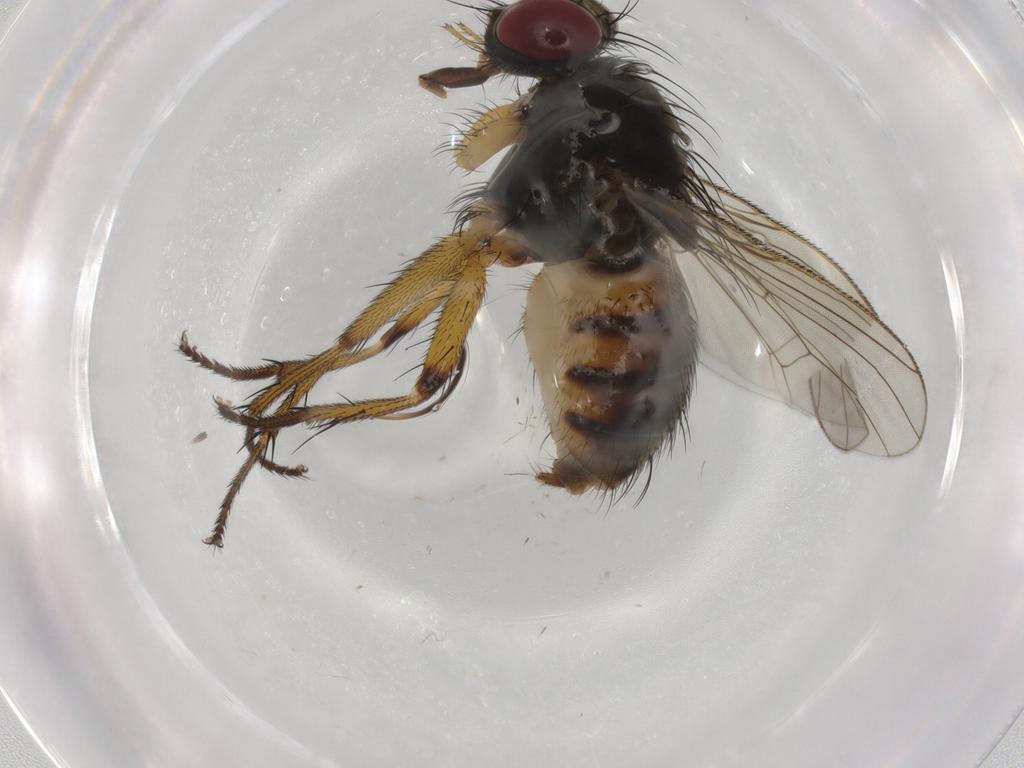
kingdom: Animalia
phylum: Arthropoda
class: Insecta
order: Diptera
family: Muscidae
